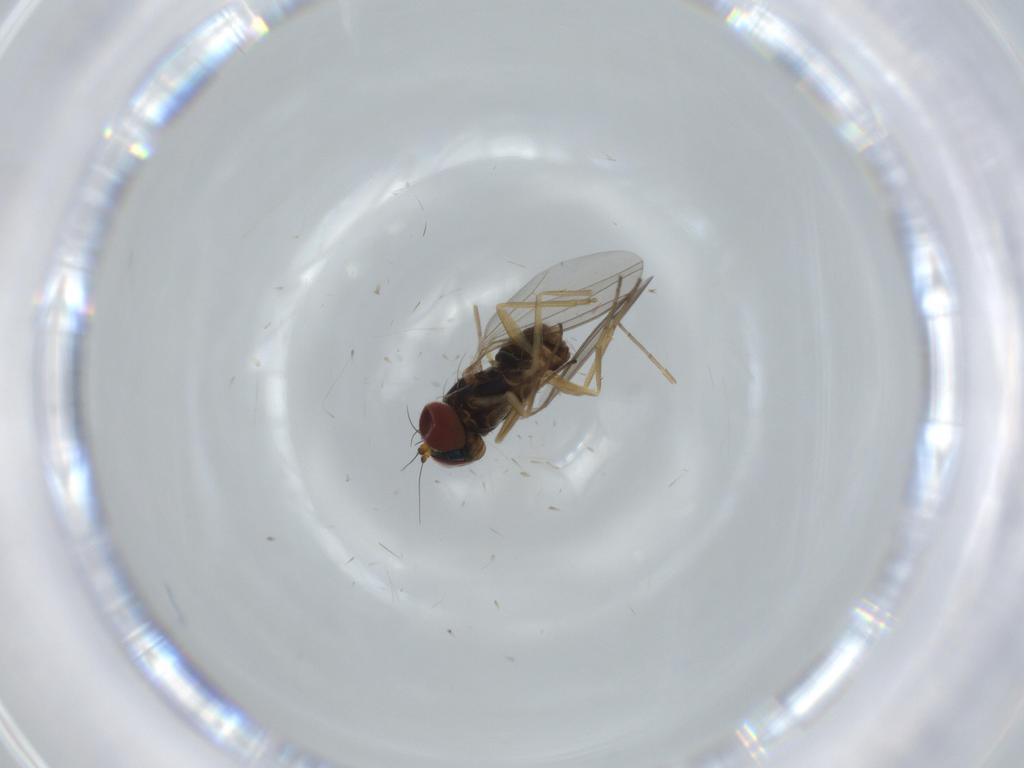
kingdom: Animalia
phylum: Arthropoda
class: Insecta
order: Diptera
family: Dolichopodidae
